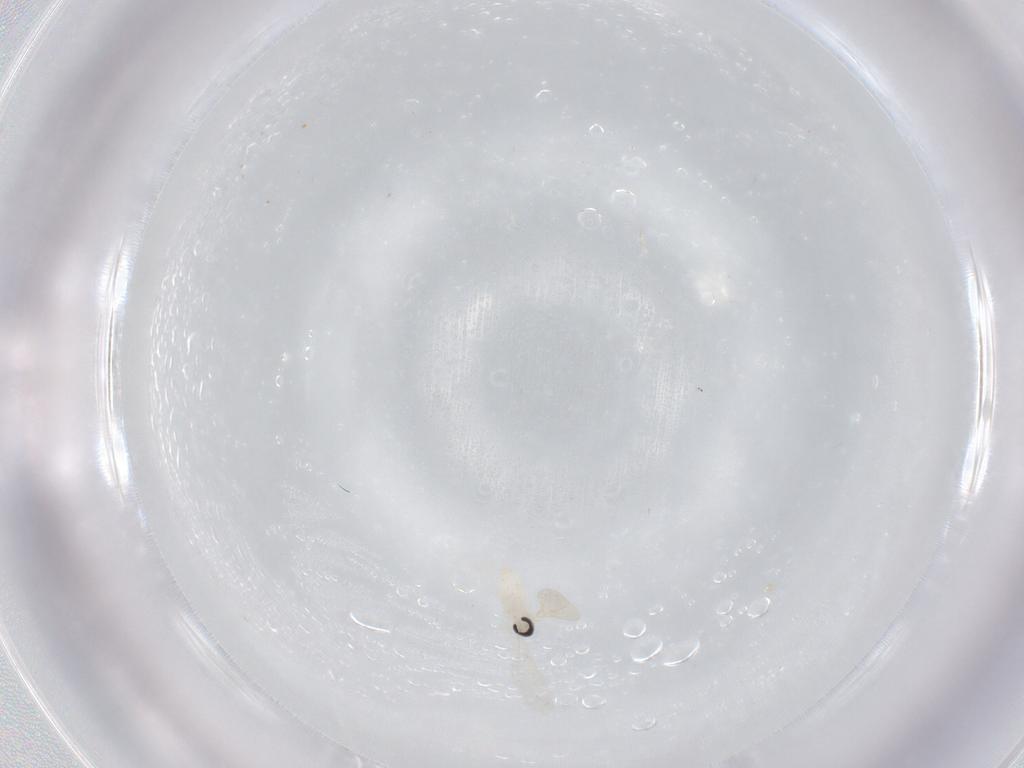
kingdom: Animalia
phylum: Arthropoda
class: Insecta
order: Diptera
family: Cecidomyiidae
